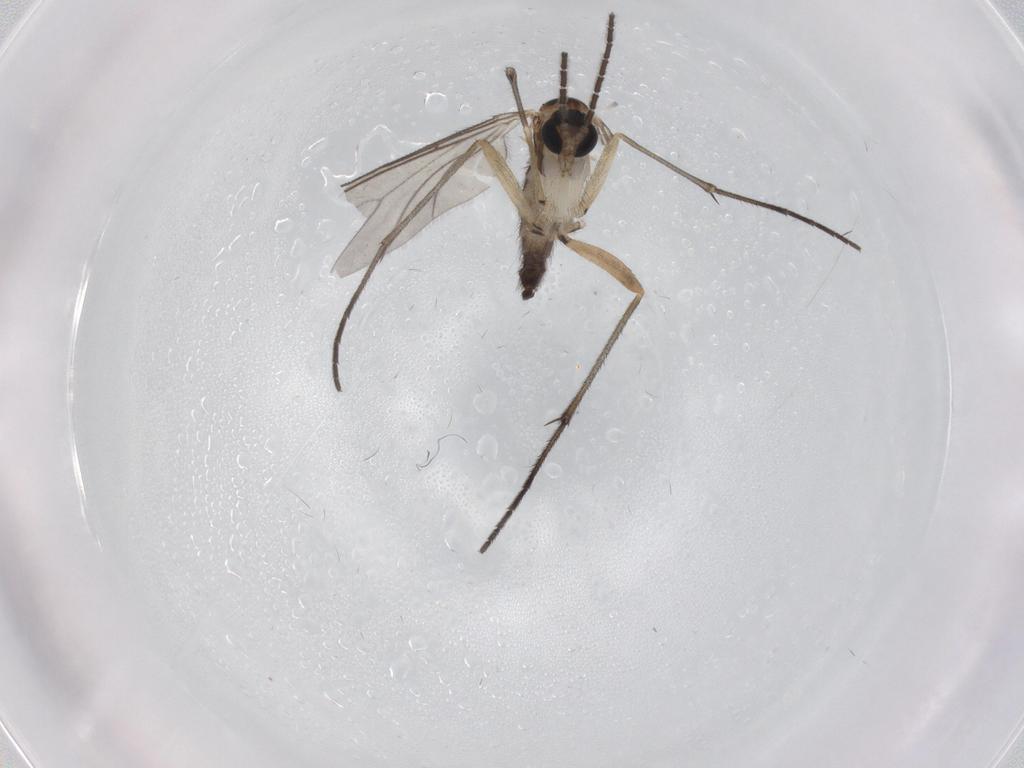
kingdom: Animalia
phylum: Arthropoda
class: Insecta
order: Diptera
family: Sciaridae
